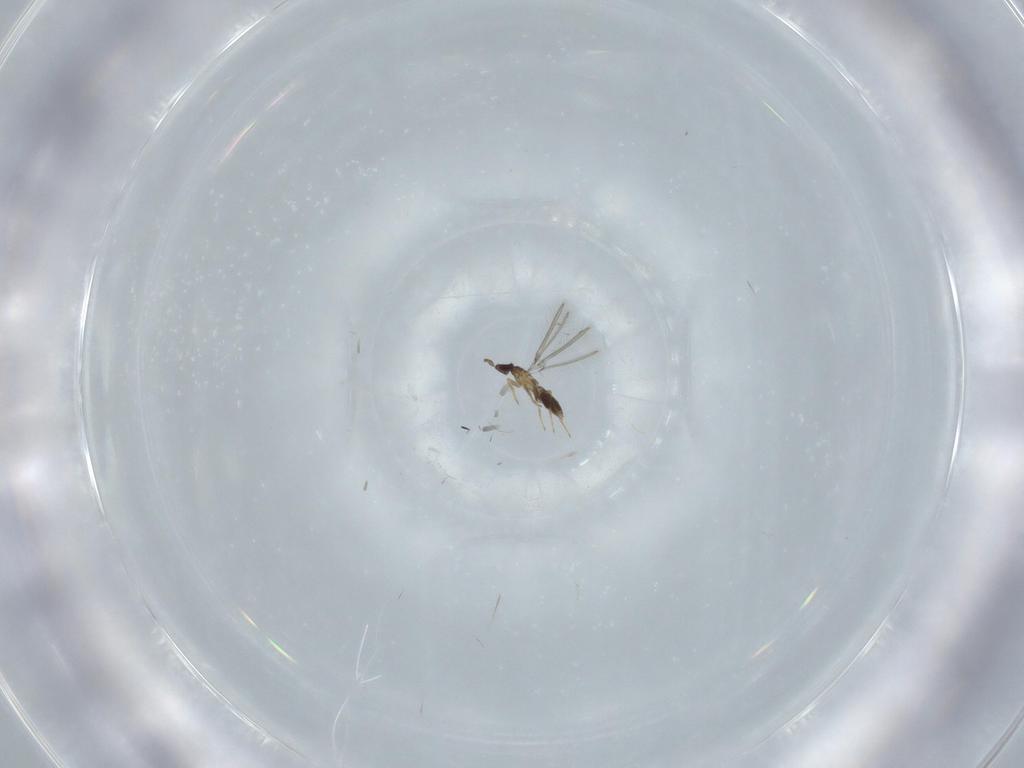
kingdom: Animalia
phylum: Arthropoda
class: Insecta
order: Hymenoptera
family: Mymaridae
